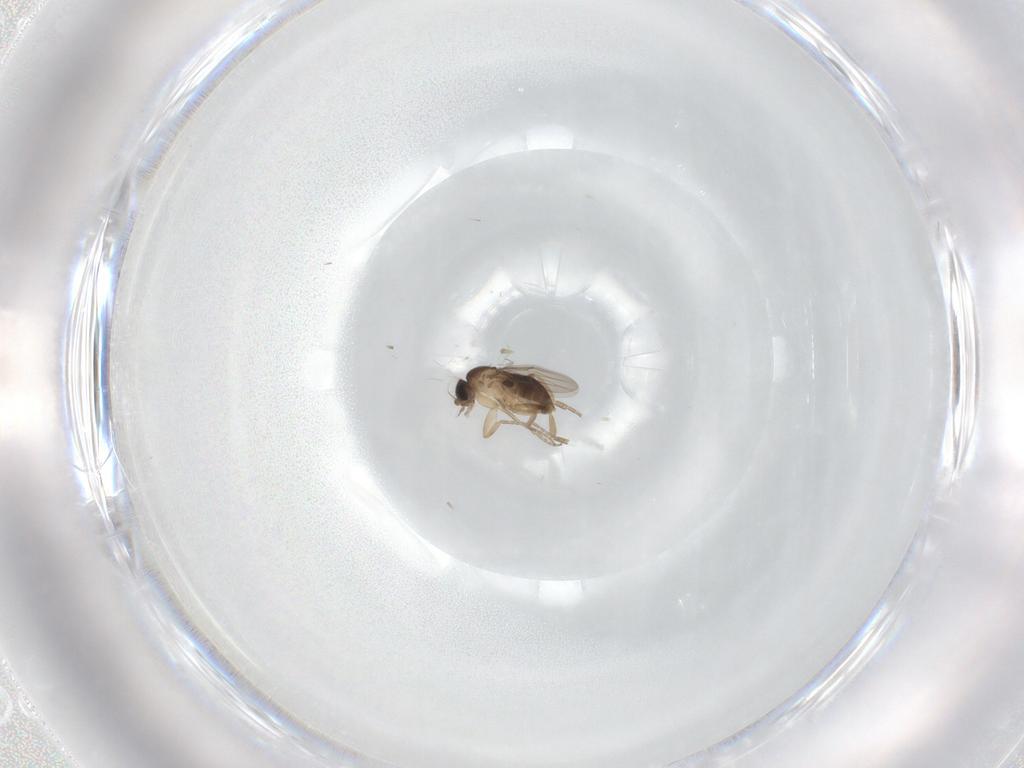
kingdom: Animalia
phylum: Arthropoda
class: Insecta
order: Diptera
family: Phoridae
